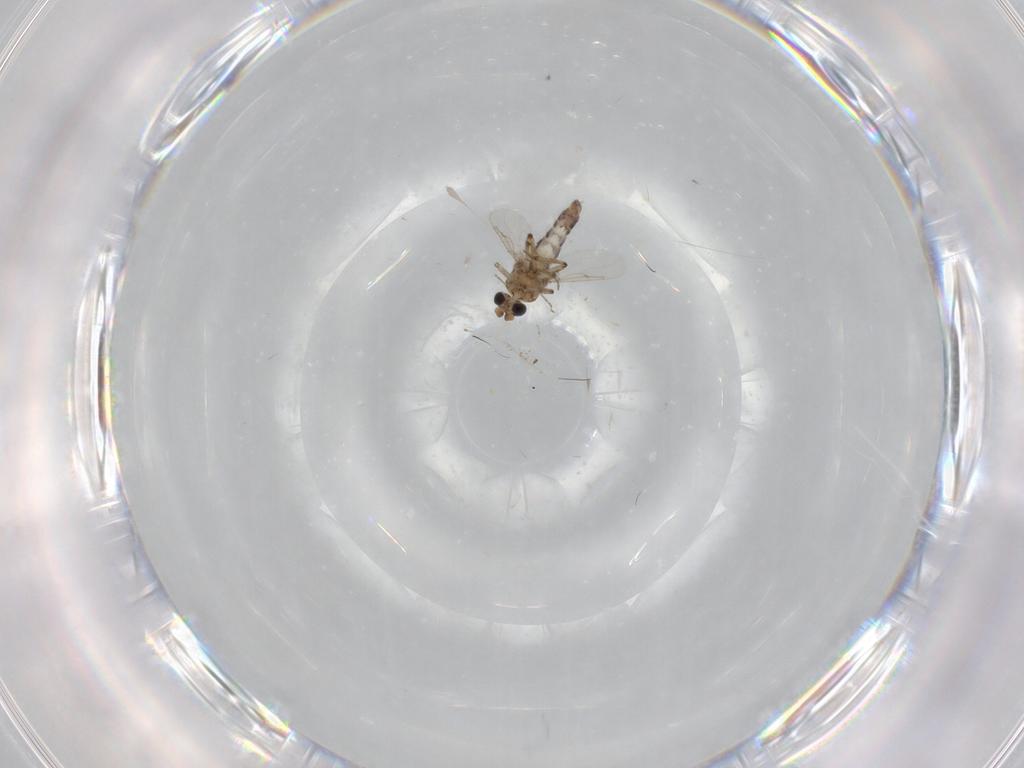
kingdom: Animalia
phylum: Arthropoda
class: Insecta
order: Diptera
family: Ceratopogonidae
